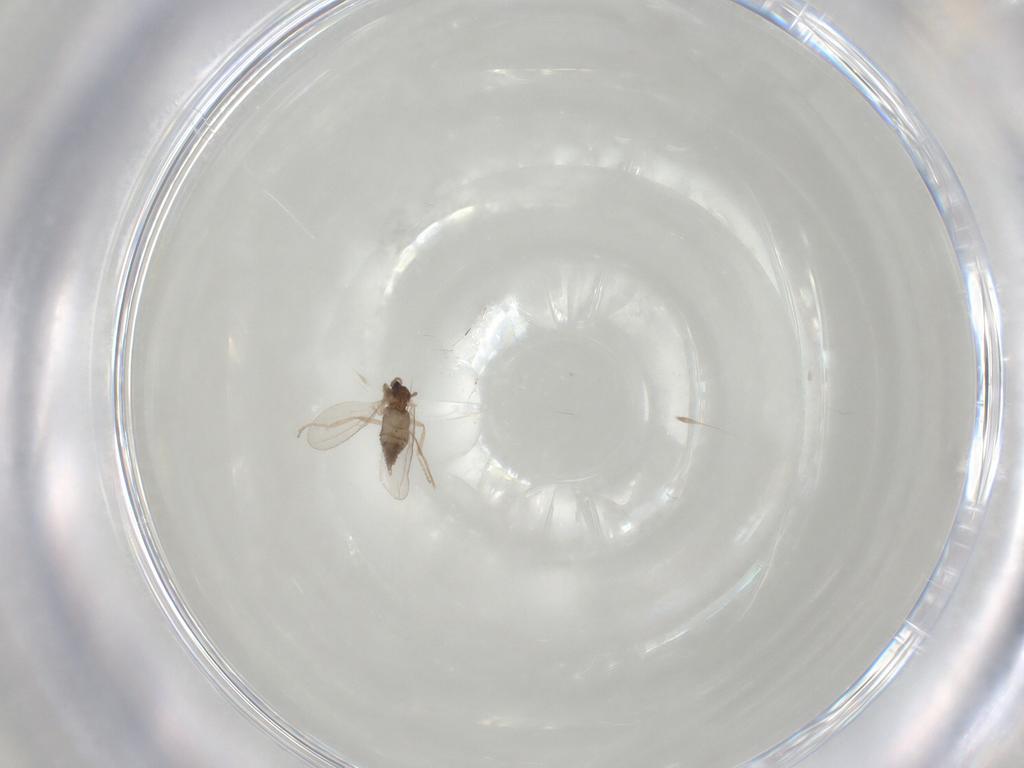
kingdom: Animalia
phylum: Arthropoda
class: Insecta
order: Diptera
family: Cecidomyiidae
